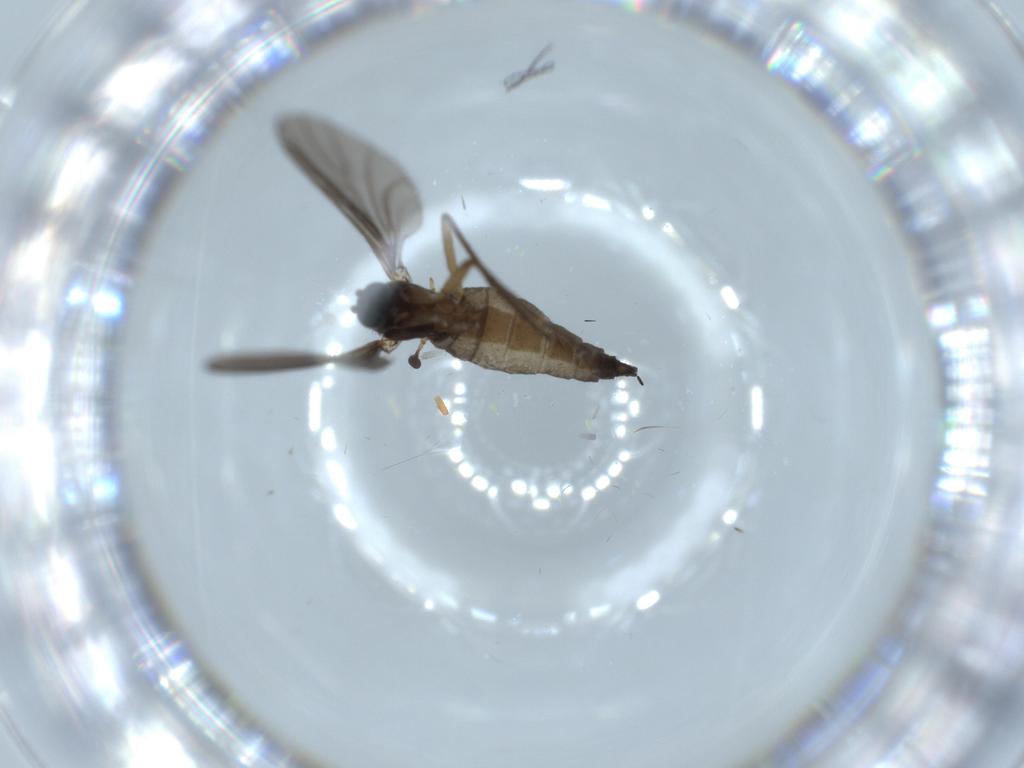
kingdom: Animalia
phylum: Arthropoda
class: Insecta
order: Diptera
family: Sciaridae
